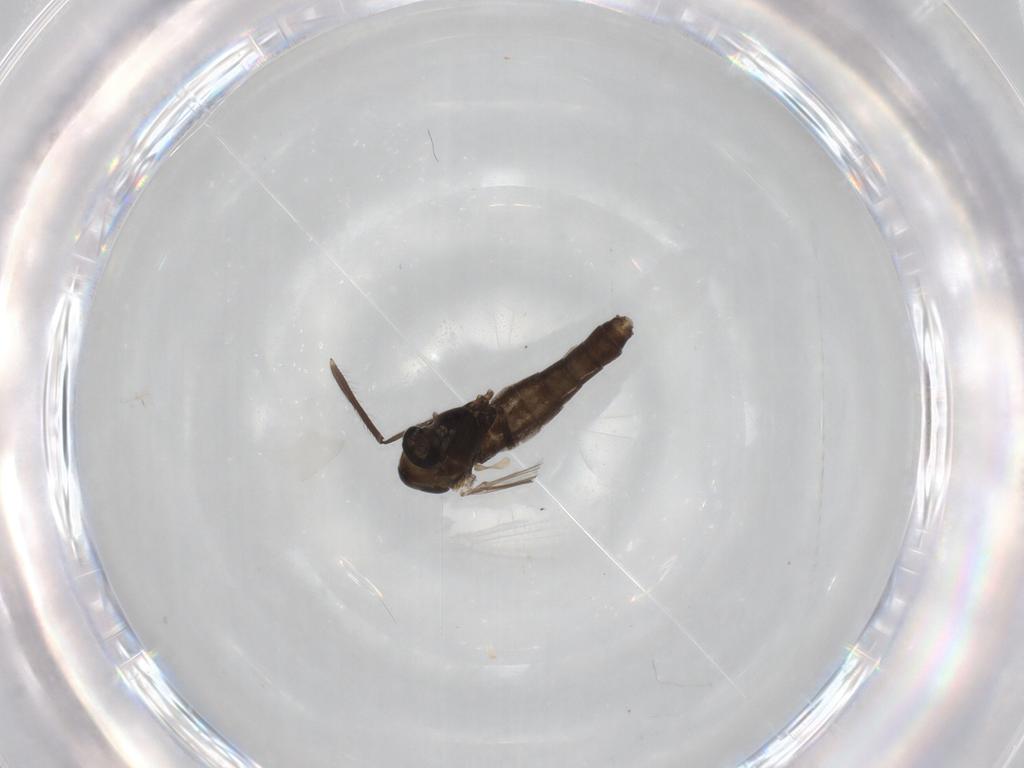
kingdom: Animalia
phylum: Arthropoda
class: Insecta
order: Diptera
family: Chironomidae
